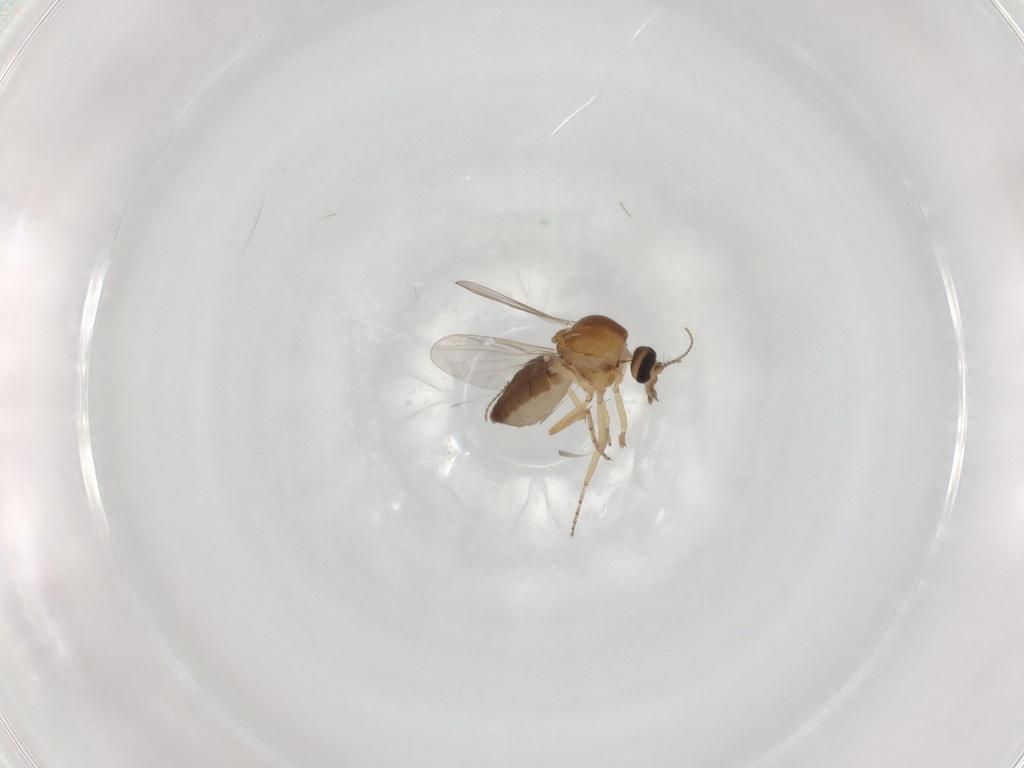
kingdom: Animalia
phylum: Arthropoda
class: Insecta
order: Diptera
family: Ceratopogonidae
